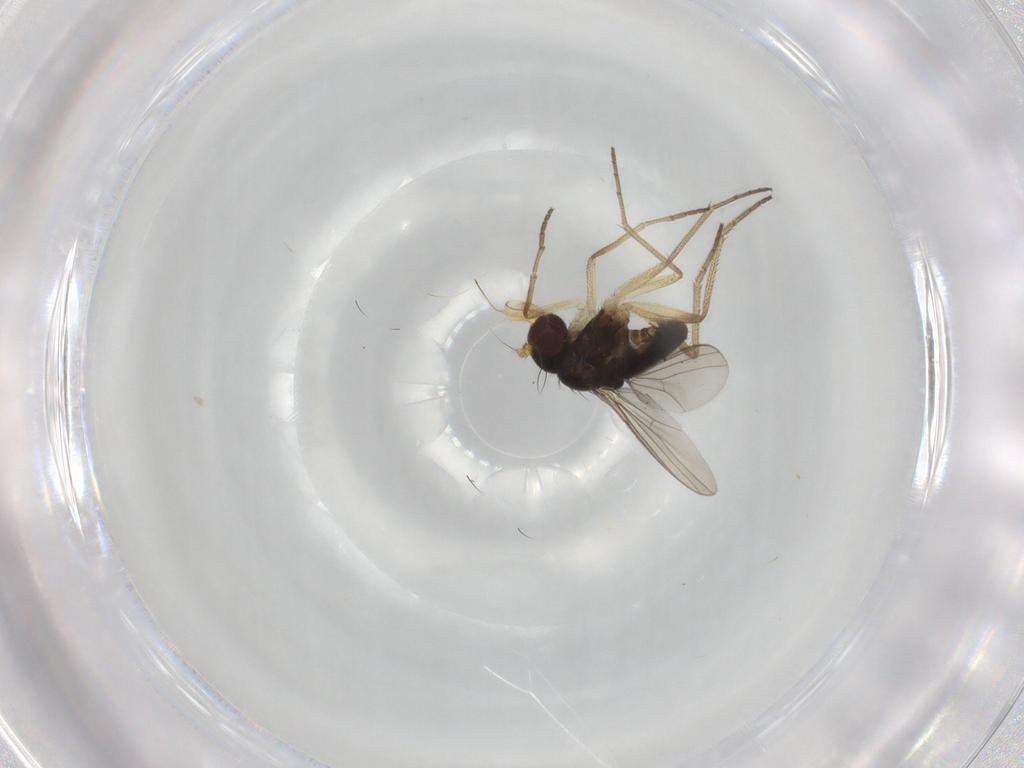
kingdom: Animalia
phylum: Arthropoda
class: Insecta
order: Diptera
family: Dolichopodidae
